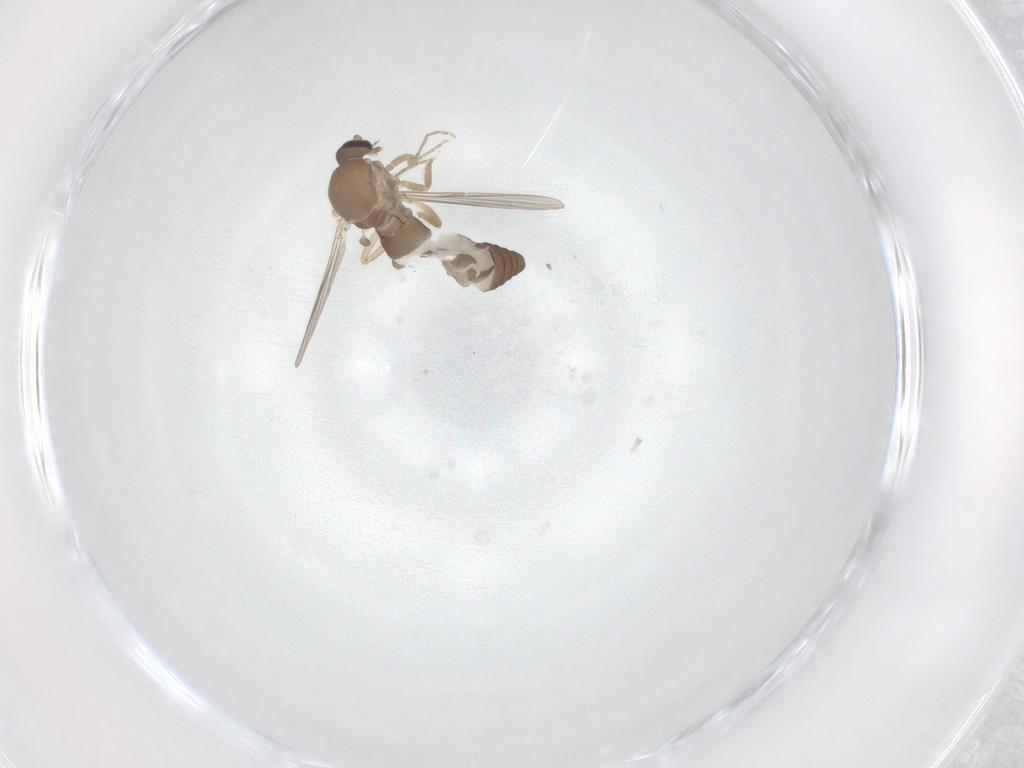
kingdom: Animalia
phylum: Arthropoda
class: Insecta
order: Diptera
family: Ceratopogonidae
